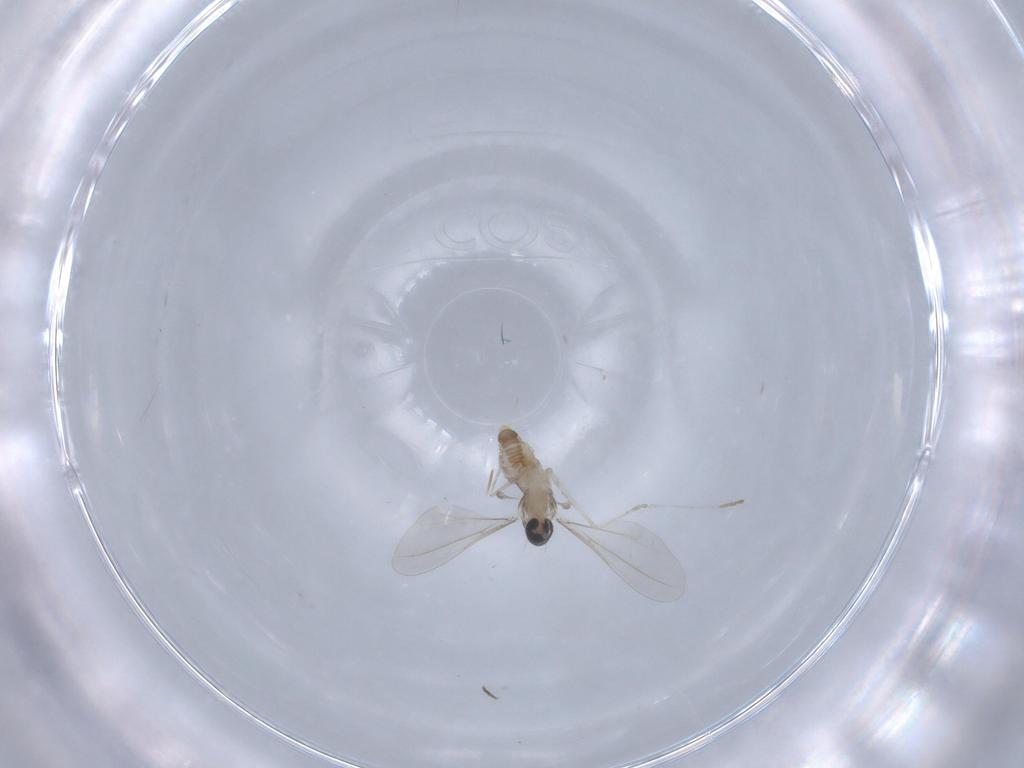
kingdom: Animalia
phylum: Arthropoda
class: Insecta
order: Diptera
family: Cecidomyiidae
